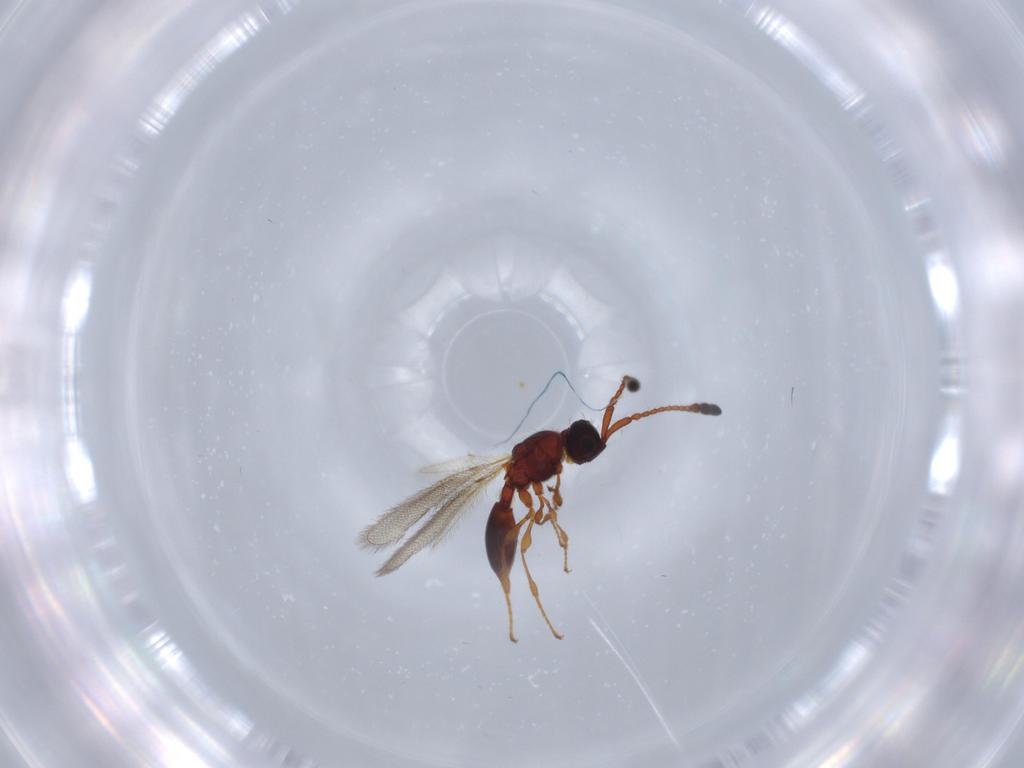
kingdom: Animalia
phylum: Arthropoda
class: Insecta
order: Hymenoptera
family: Diapriidae
